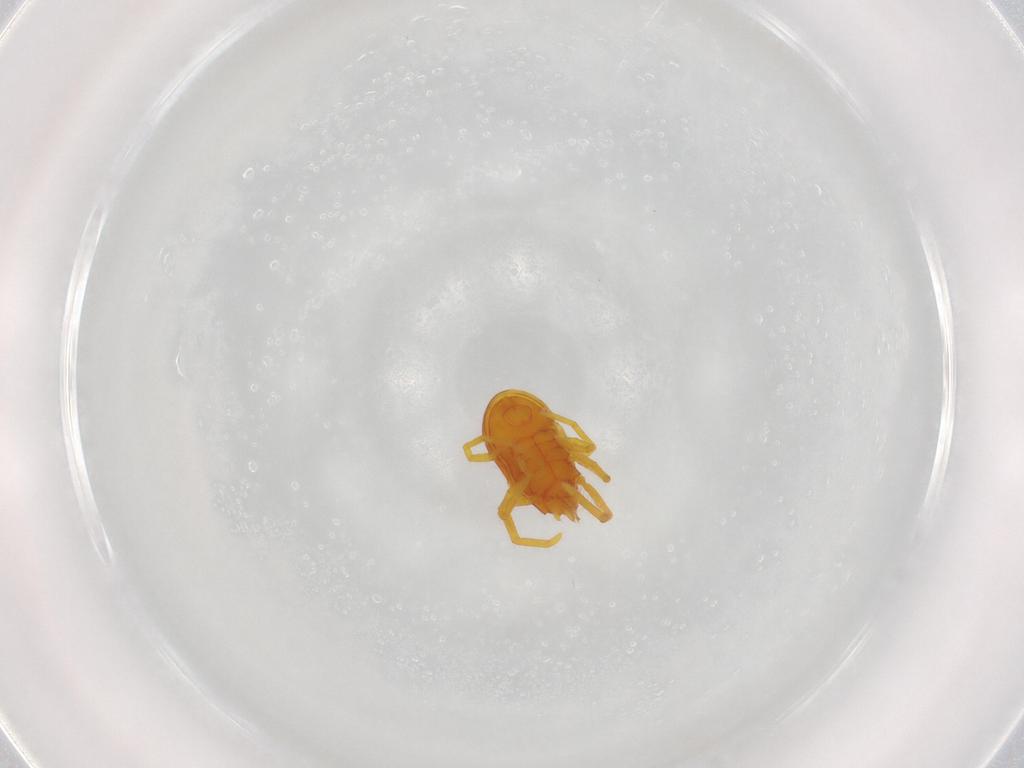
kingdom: Animalia
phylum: Arthropoda
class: Arachnida
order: Trombidiformes
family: Labidostommidae
